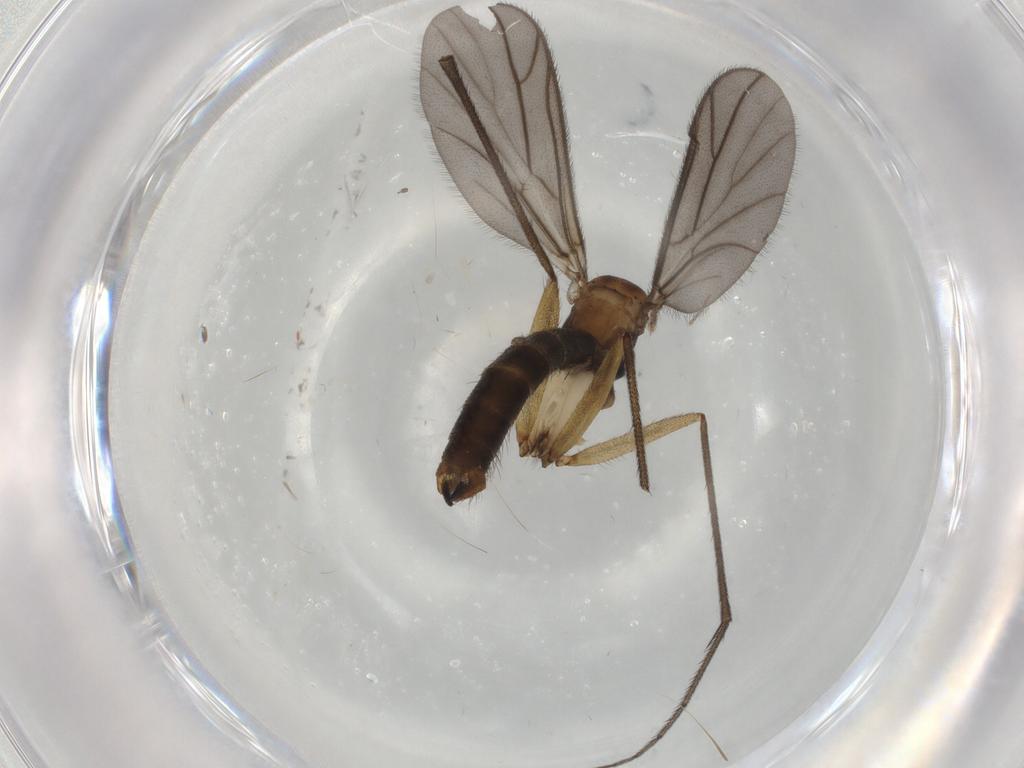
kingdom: Animalia
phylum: Arthropoda
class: Insecta
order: Diptera
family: Ditomyiidae
